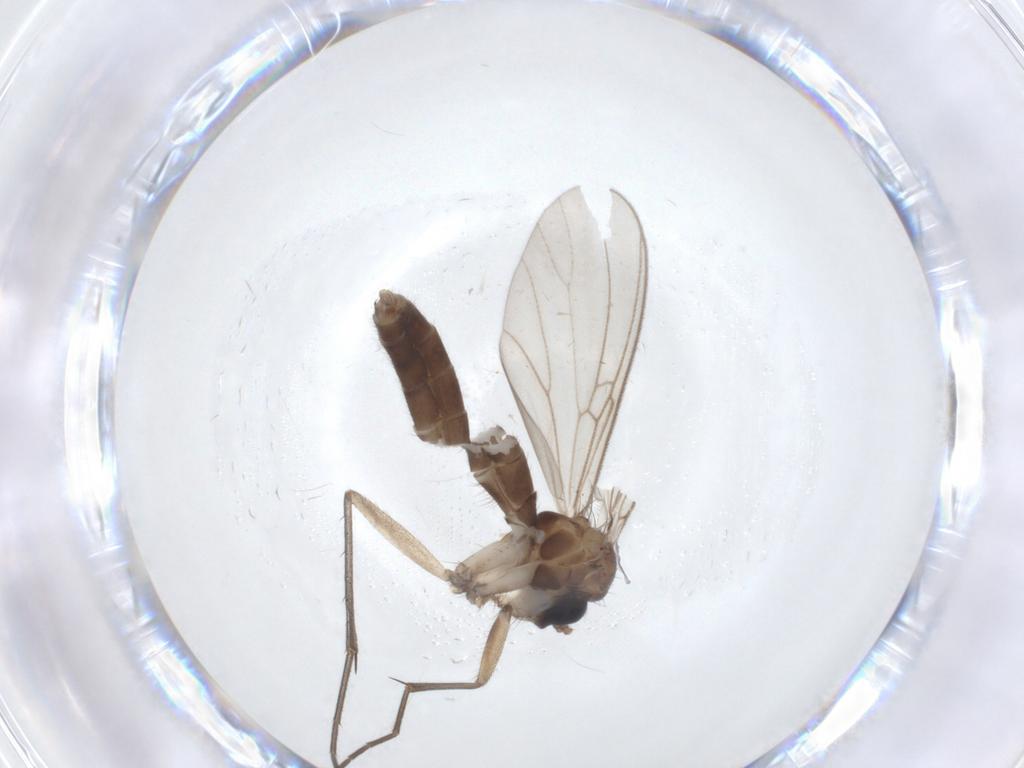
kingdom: Animalia
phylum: Arthropoda
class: Insecta
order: Diptera
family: Mycetophilidae
